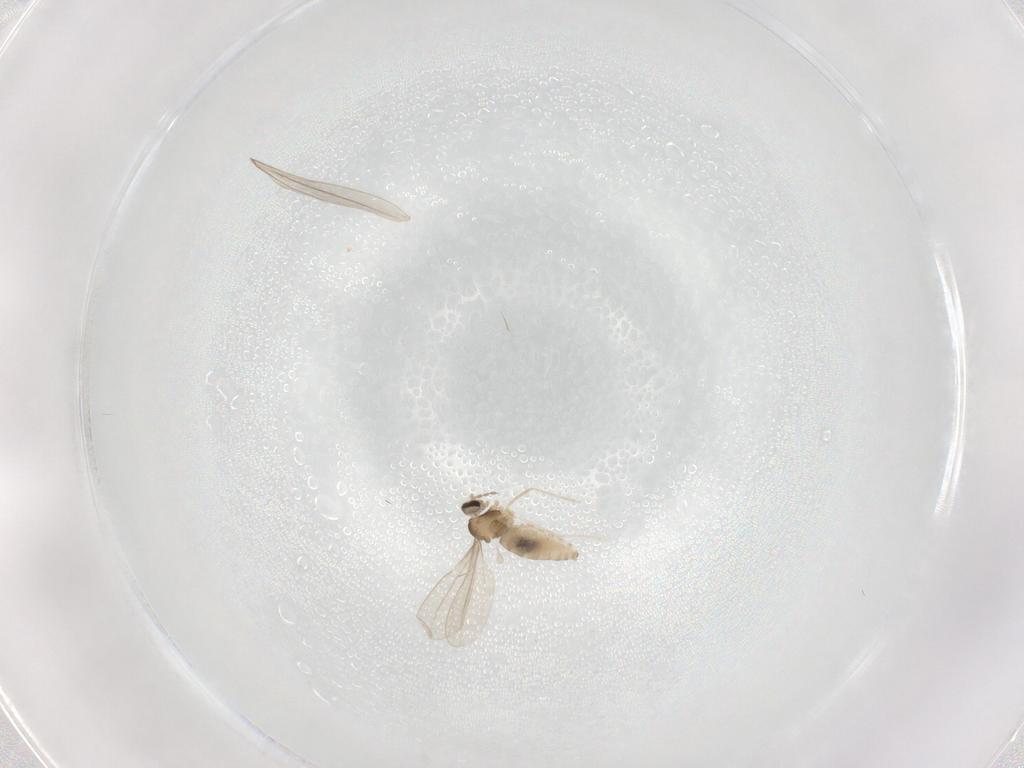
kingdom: Animalia
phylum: Arthropoda
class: Insecta
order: Diptera
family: Cecidomyiidae
